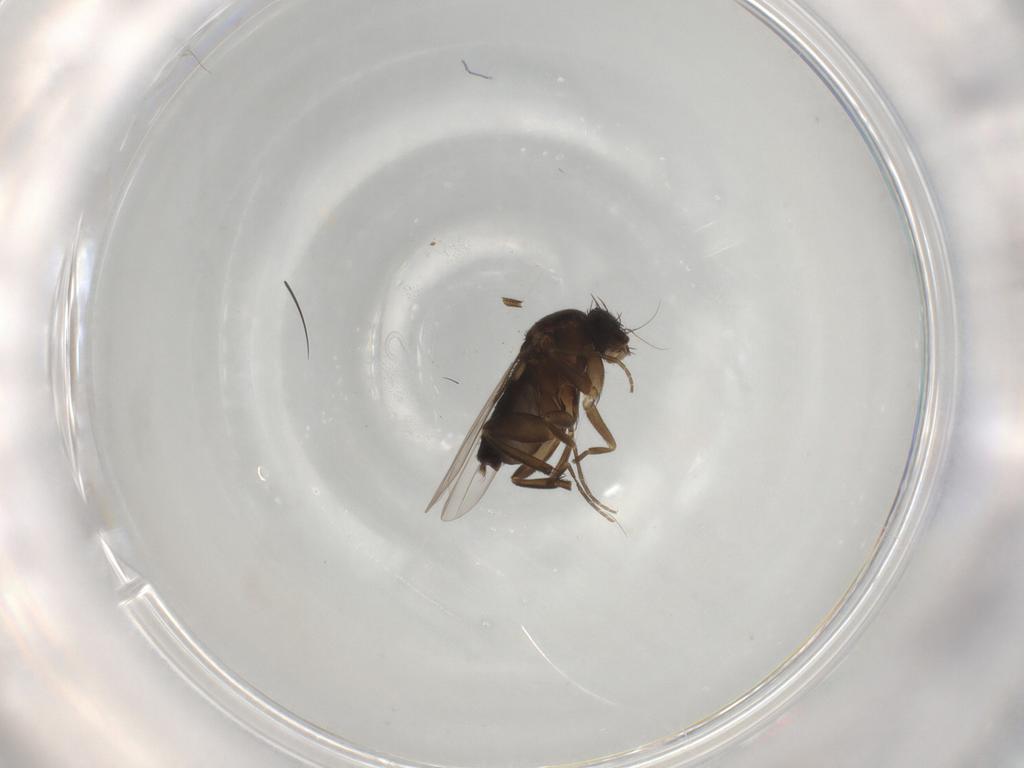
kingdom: Animalia
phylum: Arthropoda
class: Insecta
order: Diptera
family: Phoridae
